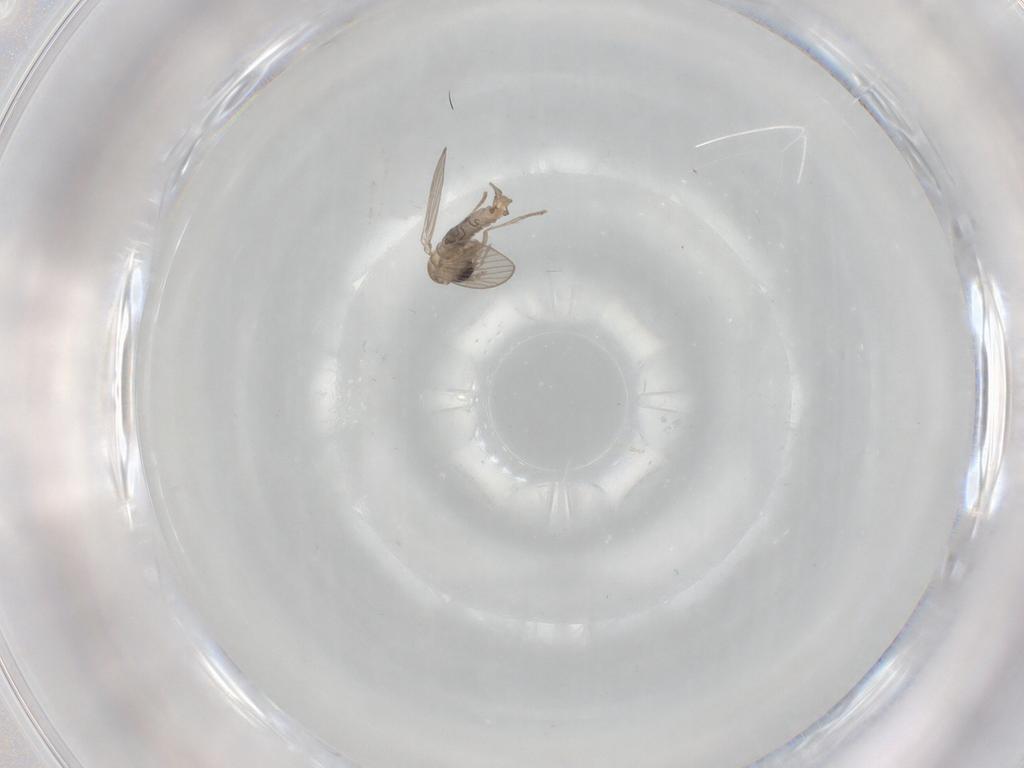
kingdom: Animalia
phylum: Arthropoda
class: Insecta
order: Diptera
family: Psychodidae
